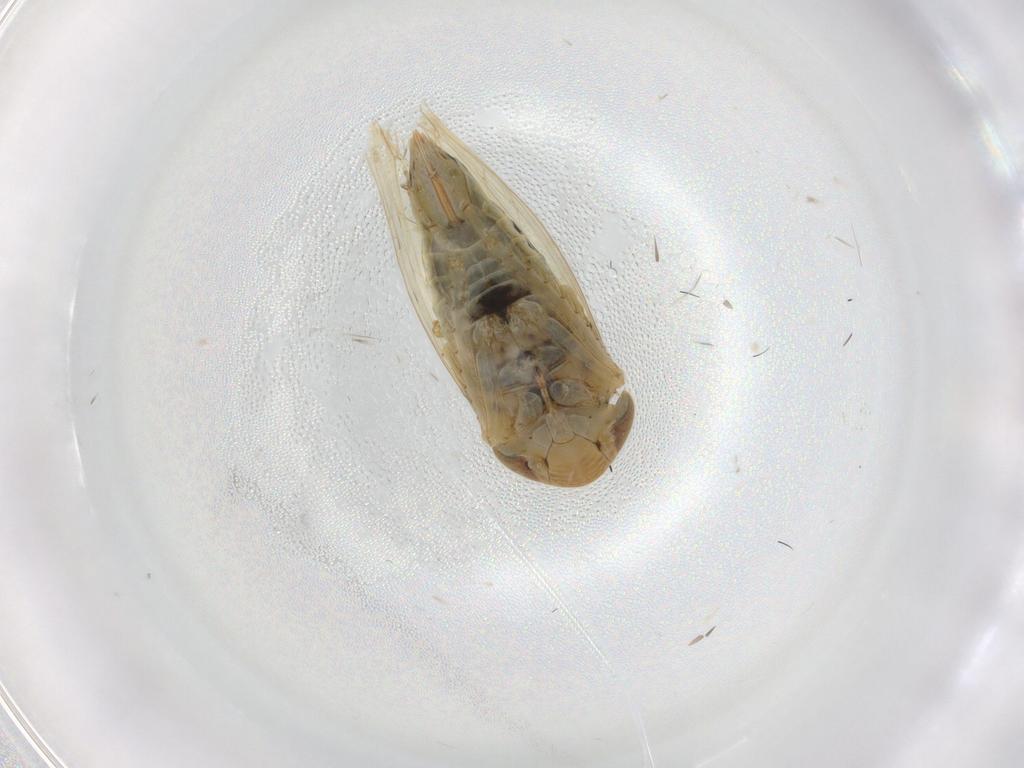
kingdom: Animalia
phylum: Arthropoda
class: Insecta
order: Hemiptera
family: Cicadellidae
